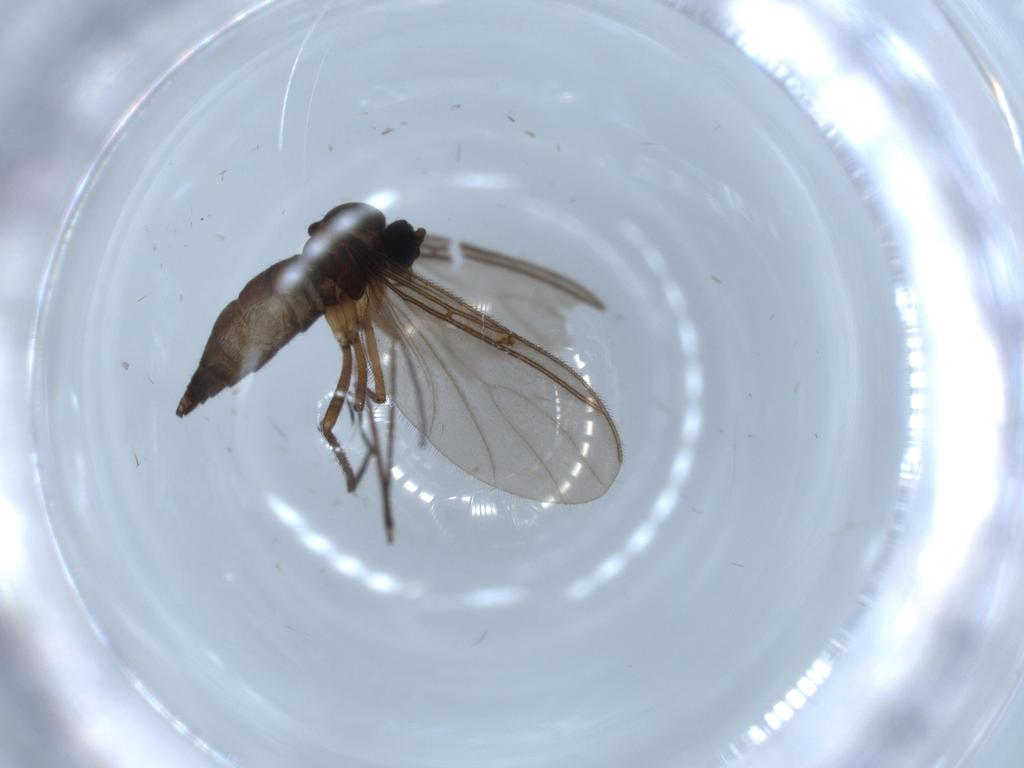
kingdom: Animalia
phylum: Arthropoda
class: Insecta
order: Diptera
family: Sciaridae
